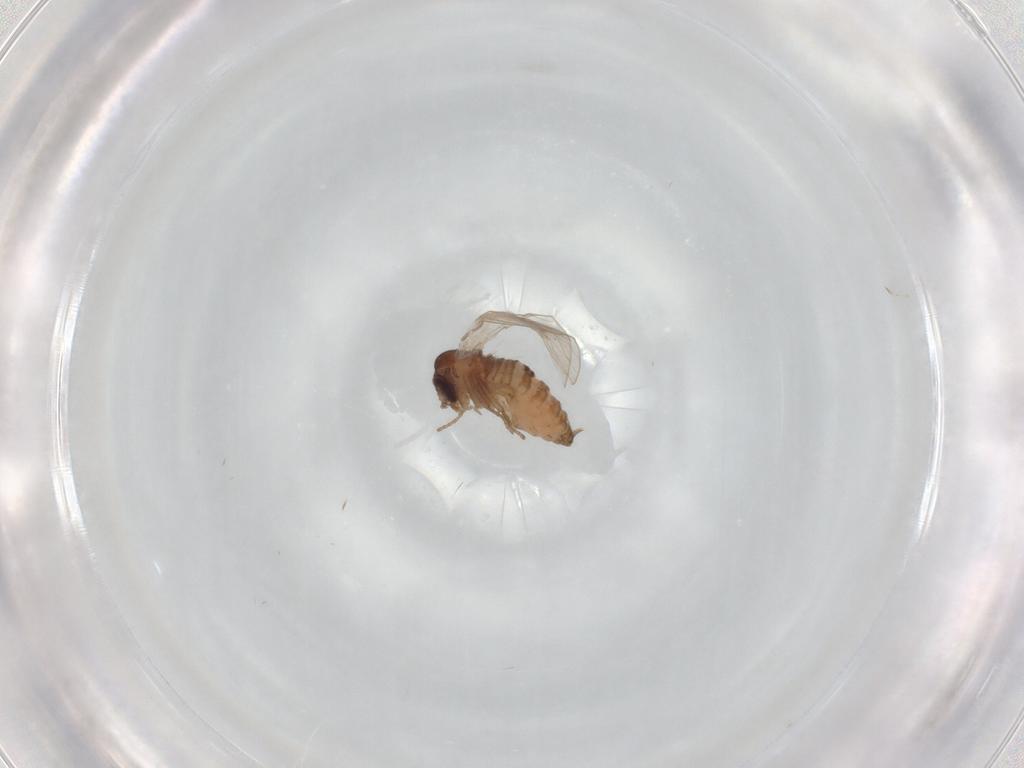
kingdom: Animalia
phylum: Arthropoda
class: Insecta
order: Diptera
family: Psychodidae
